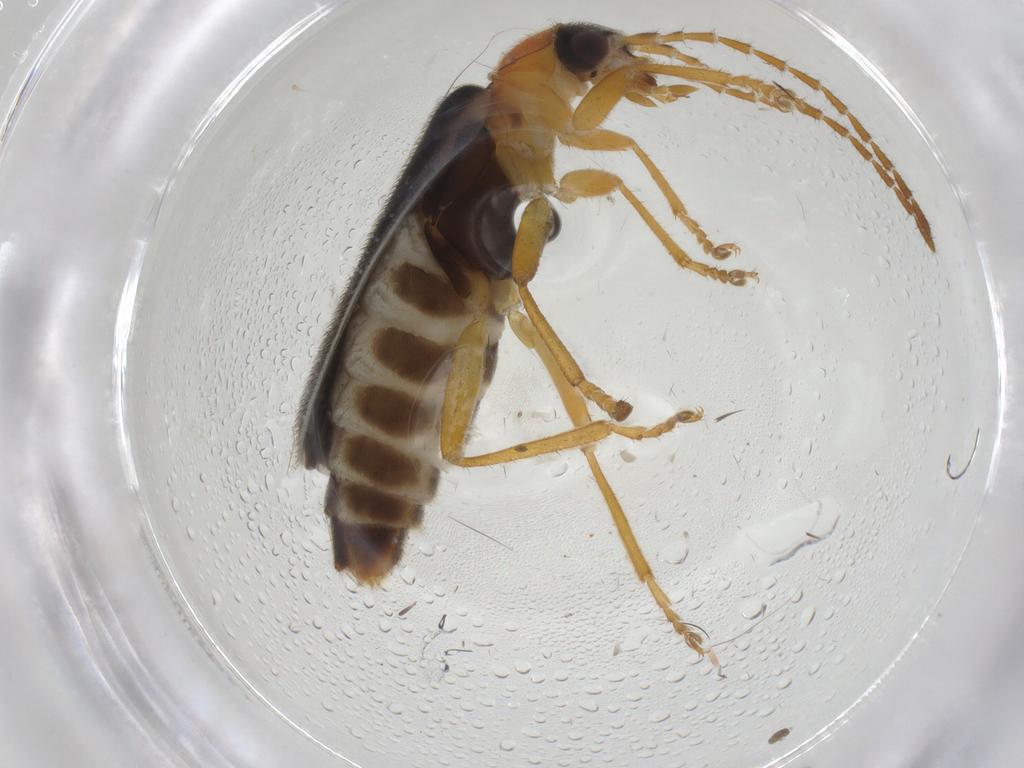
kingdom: Animalia
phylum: Arthropoda
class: Insecta
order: Coleoptera
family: Cantharidae
